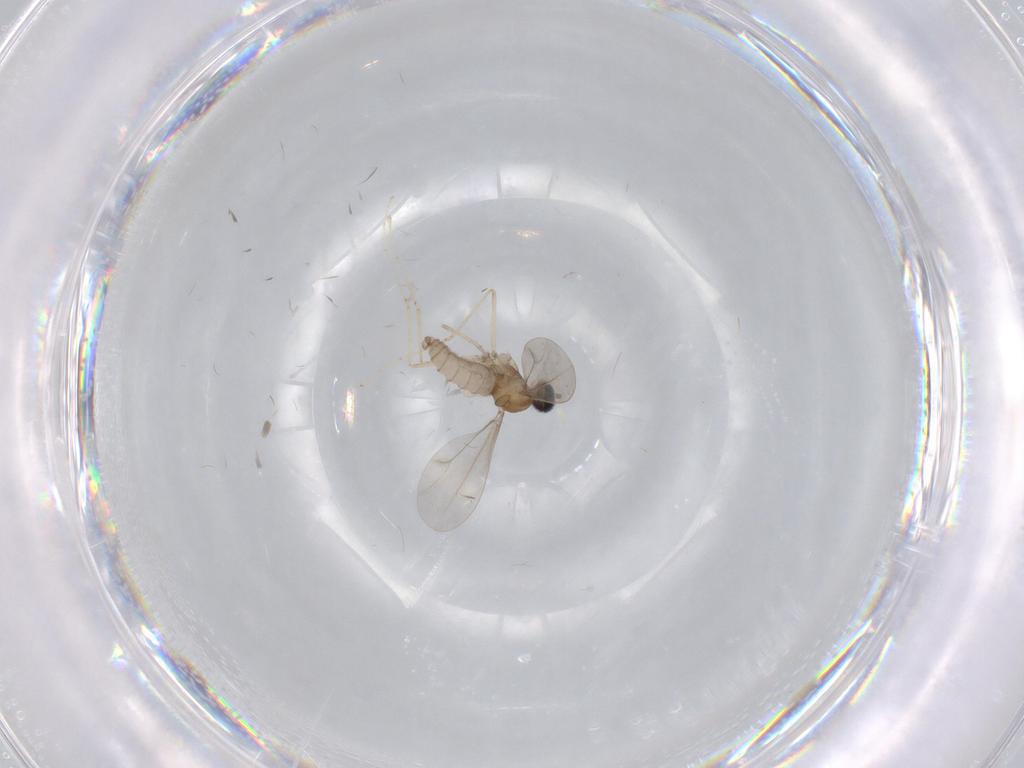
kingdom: Animalia
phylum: Arthropoda
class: Insecta
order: Diptera
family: Cecidomyiidae
